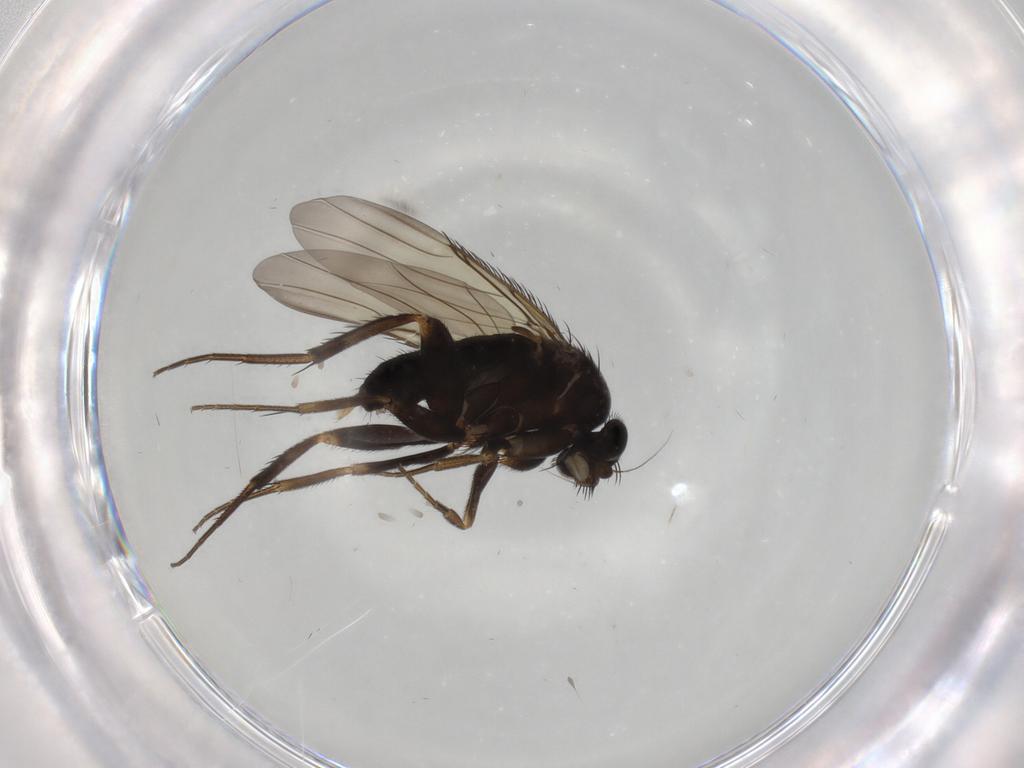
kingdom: Animalia
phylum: Arthropoda
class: Insecta
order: Diptera
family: Phoridae
